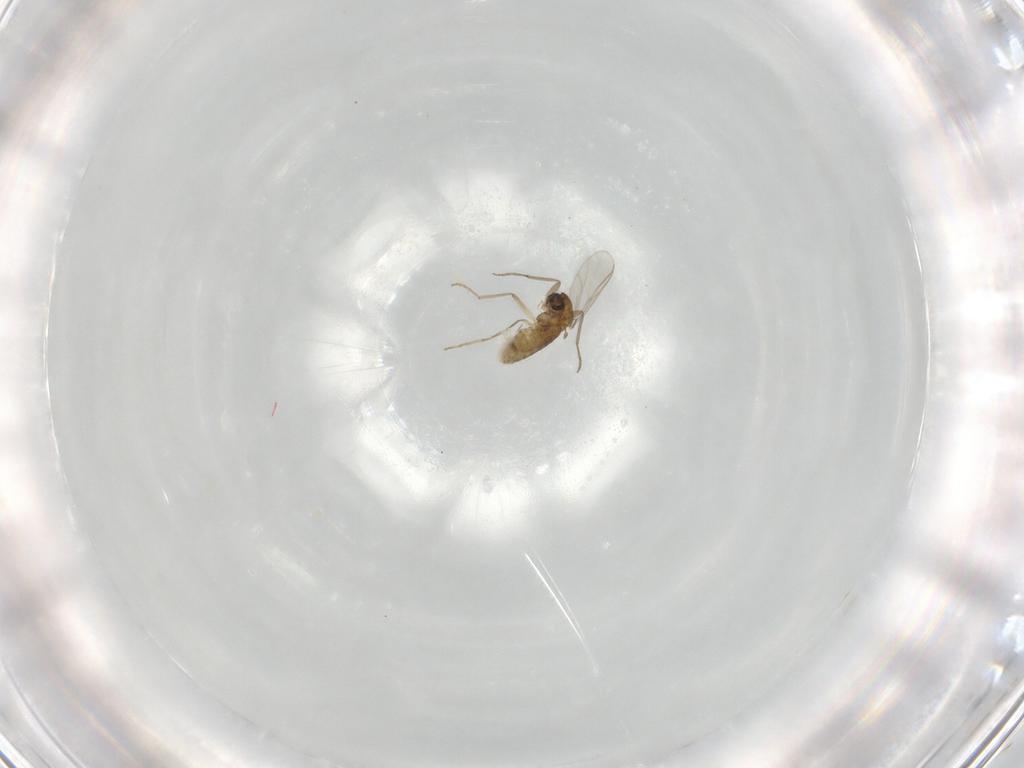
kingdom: Animalia
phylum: Arthropoda
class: Insecta
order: Diptera
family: Chironomidae
